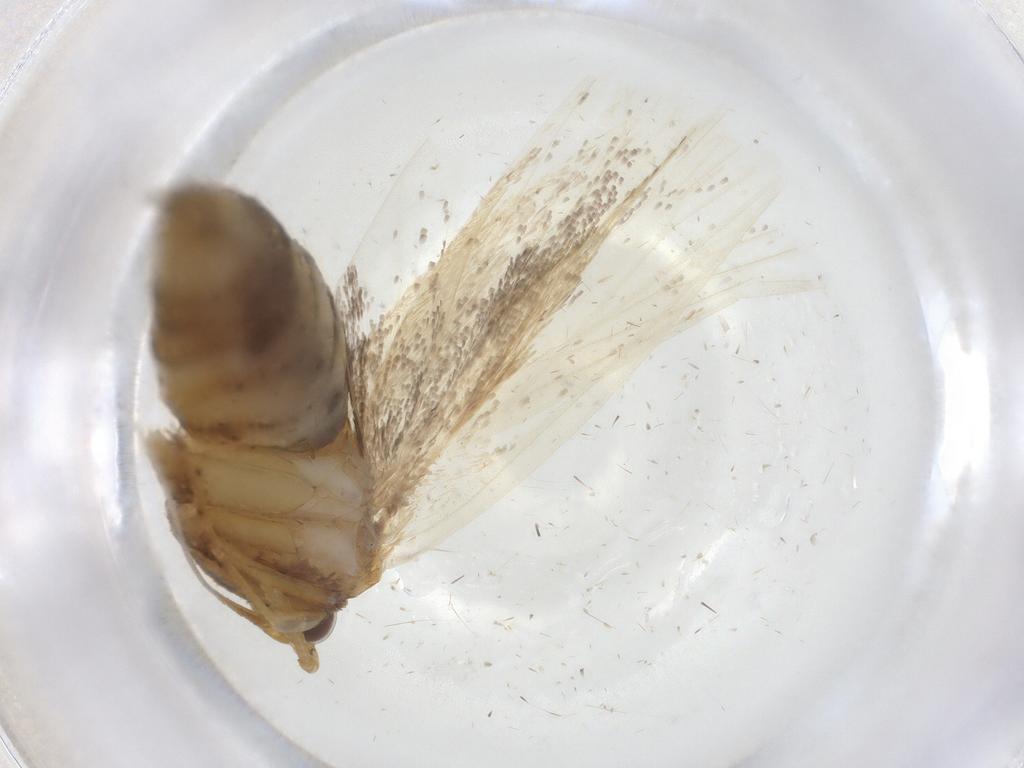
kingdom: Animalia
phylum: Arthropoda
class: Insecta
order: Lepidoptera
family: Lecithoceridae
